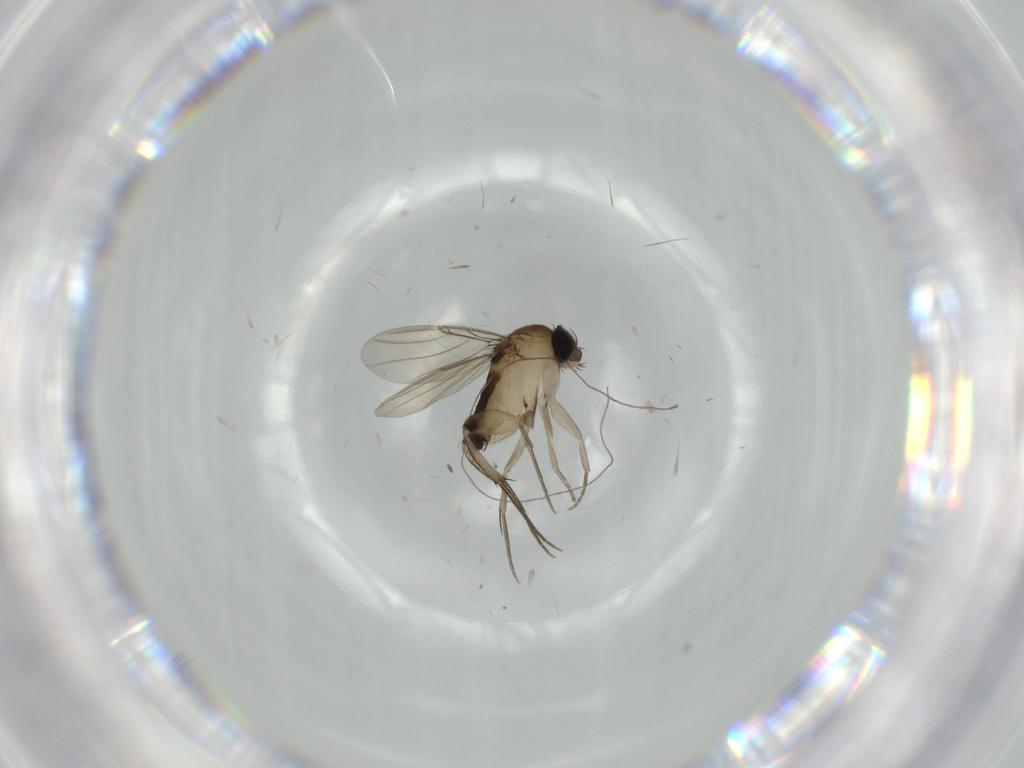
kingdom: Animalia
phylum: Arthropoda
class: Insecta
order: Diptera
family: Phoridae
